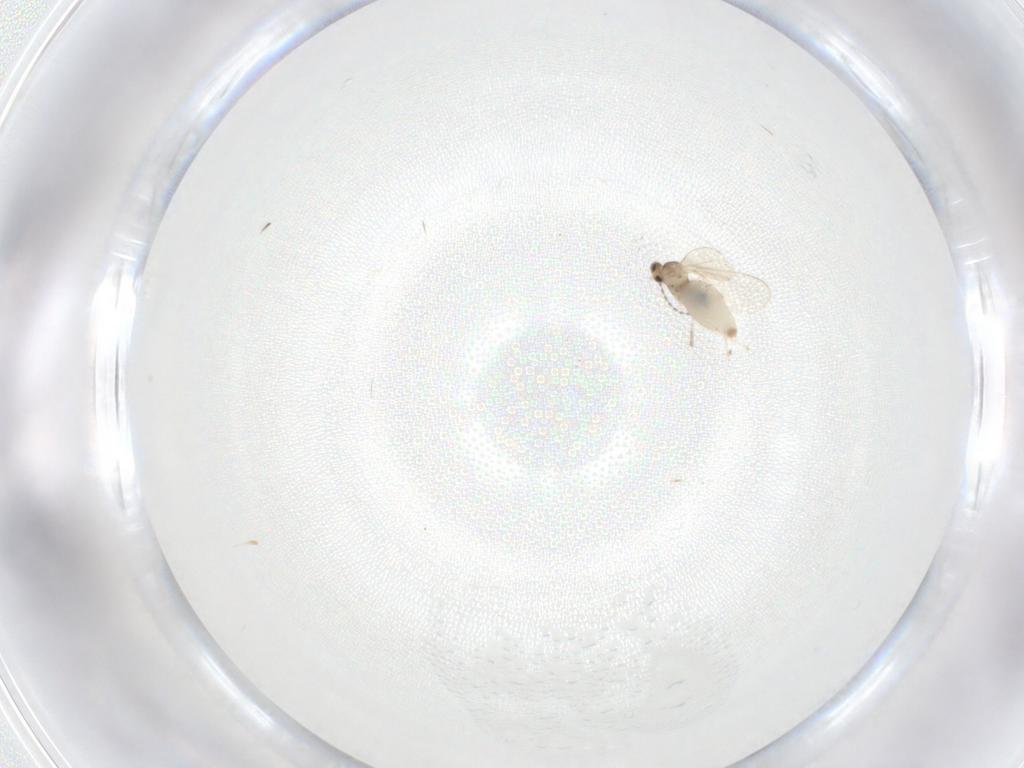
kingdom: Animalia
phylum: Arthropoda
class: Insecta
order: Diptera
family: Cecidomyiidae
